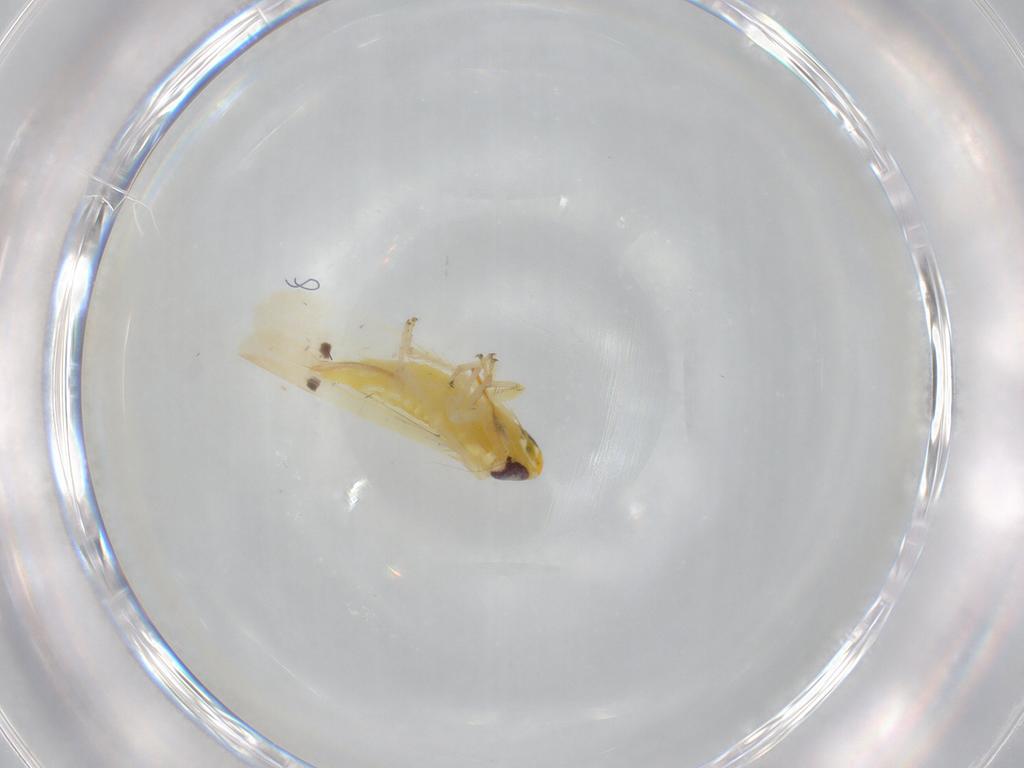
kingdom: Animalia
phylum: Arthropoda
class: Insecta
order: Hemiptera
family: Cicadellidae
